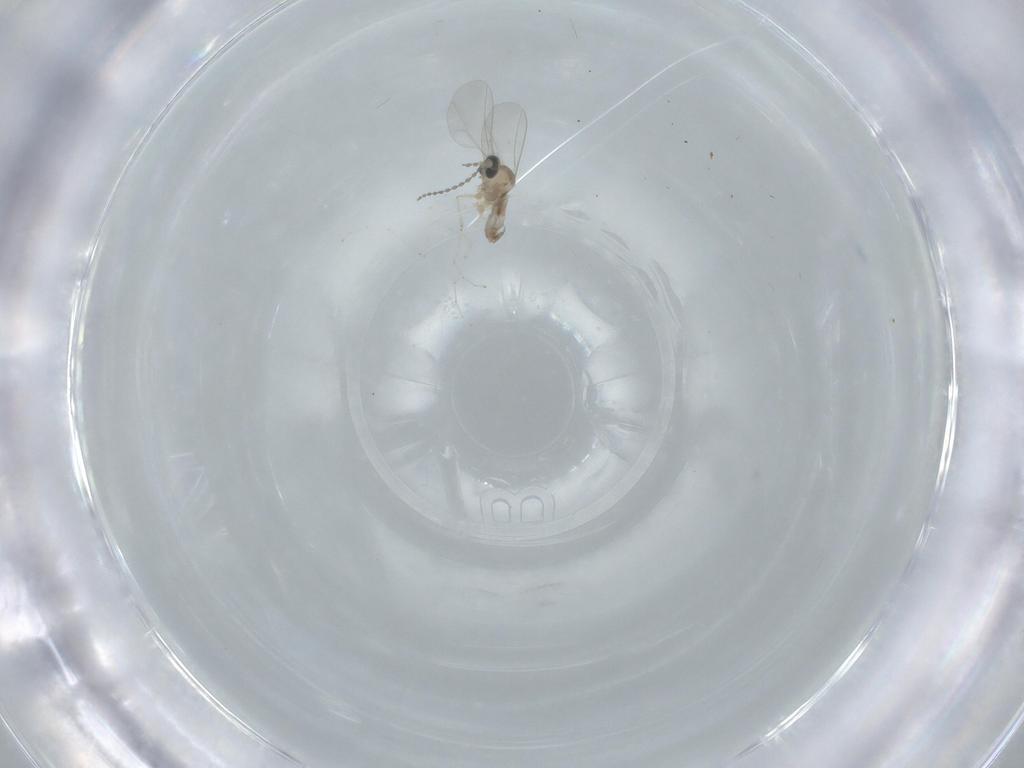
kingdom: Animalia
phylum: Arthropoda
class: Insecta
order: Diptera
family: Cecidomyiidae
